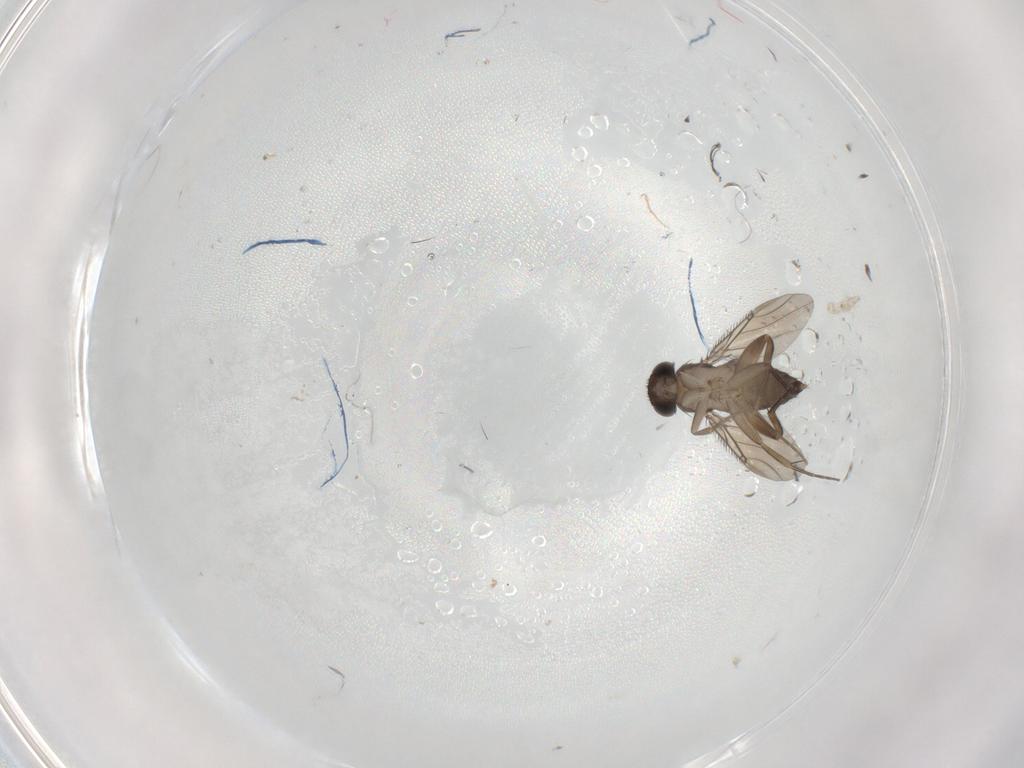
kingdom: Animalia
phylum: Arthropoda
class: Insecta
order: Diptera
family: Phoridae
